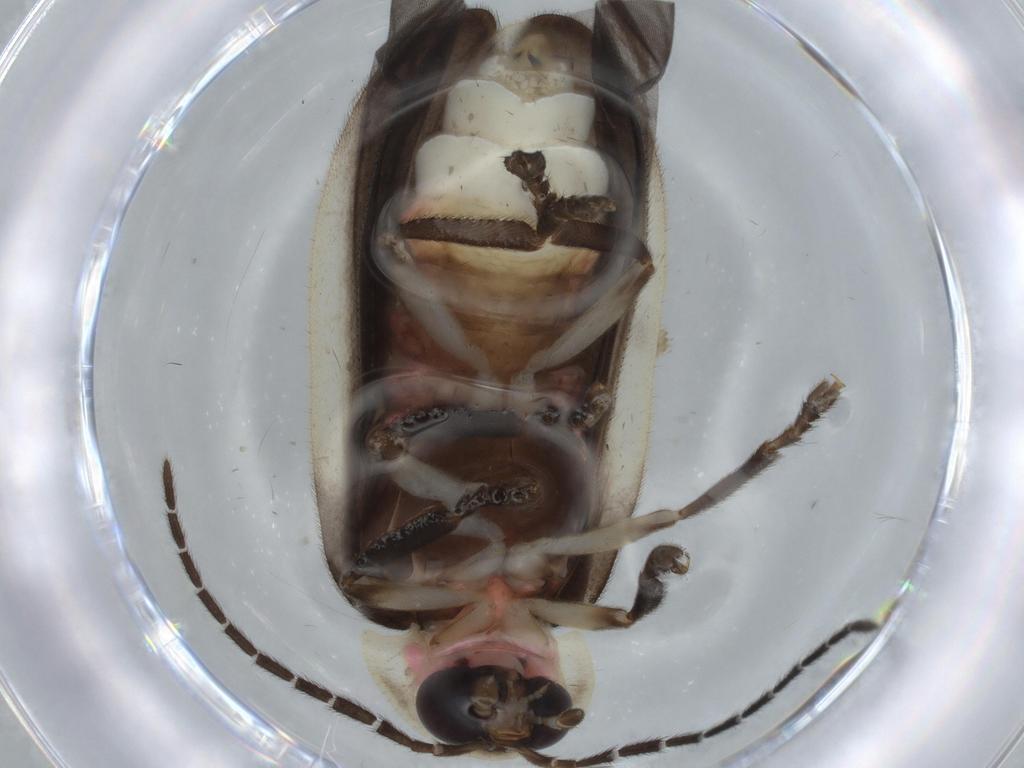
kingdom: Animalia
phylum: Arthropoda
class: Insecta
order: Coleoptera
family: Lampyridae
